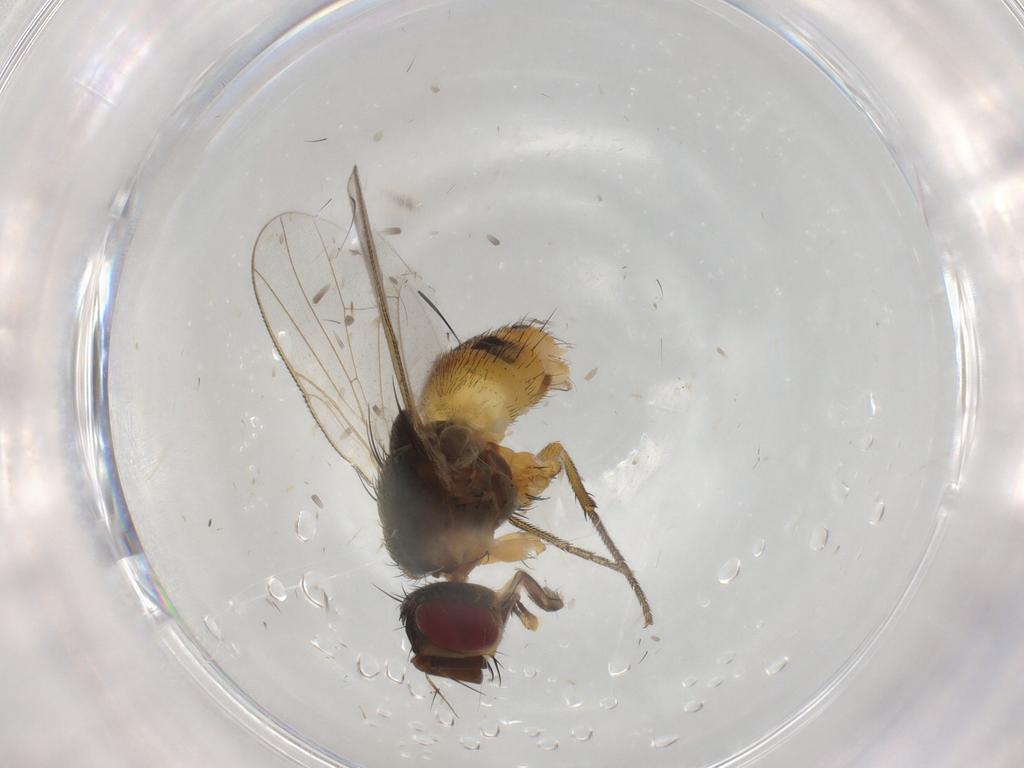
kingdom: Animalia
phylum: Arthropoda
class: Insecta
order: Diptera
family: Muscidae
